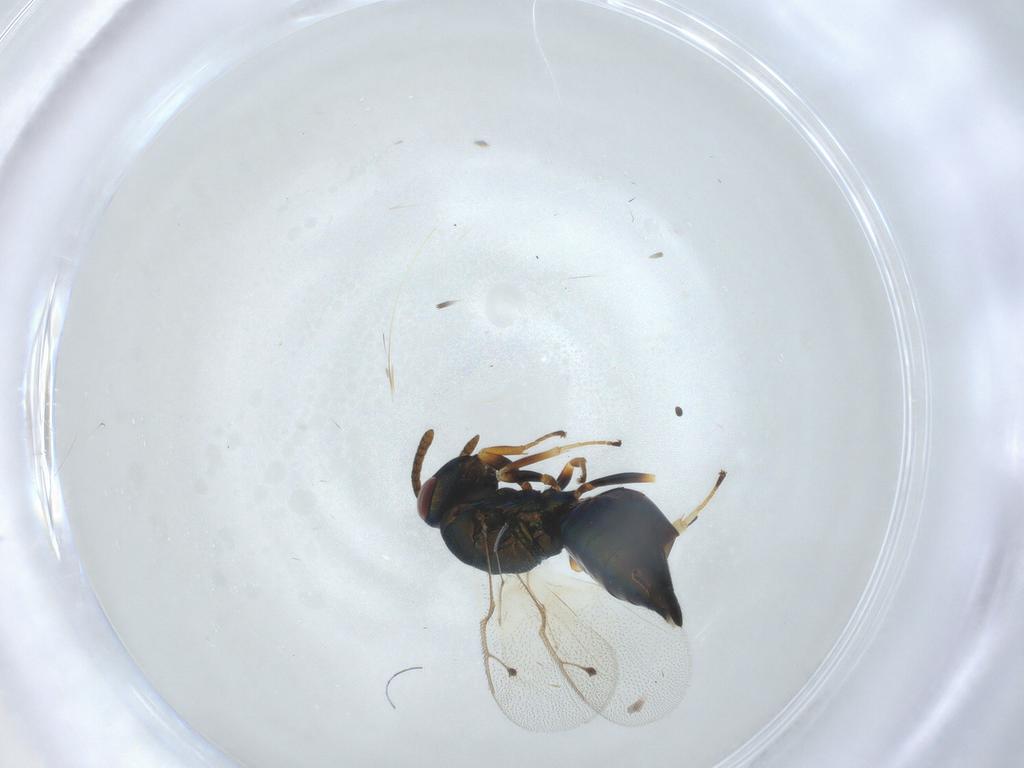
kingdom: Animalia
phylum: Arthropoda
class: Insecta
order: Hymenoptera
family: Pteromalidae
